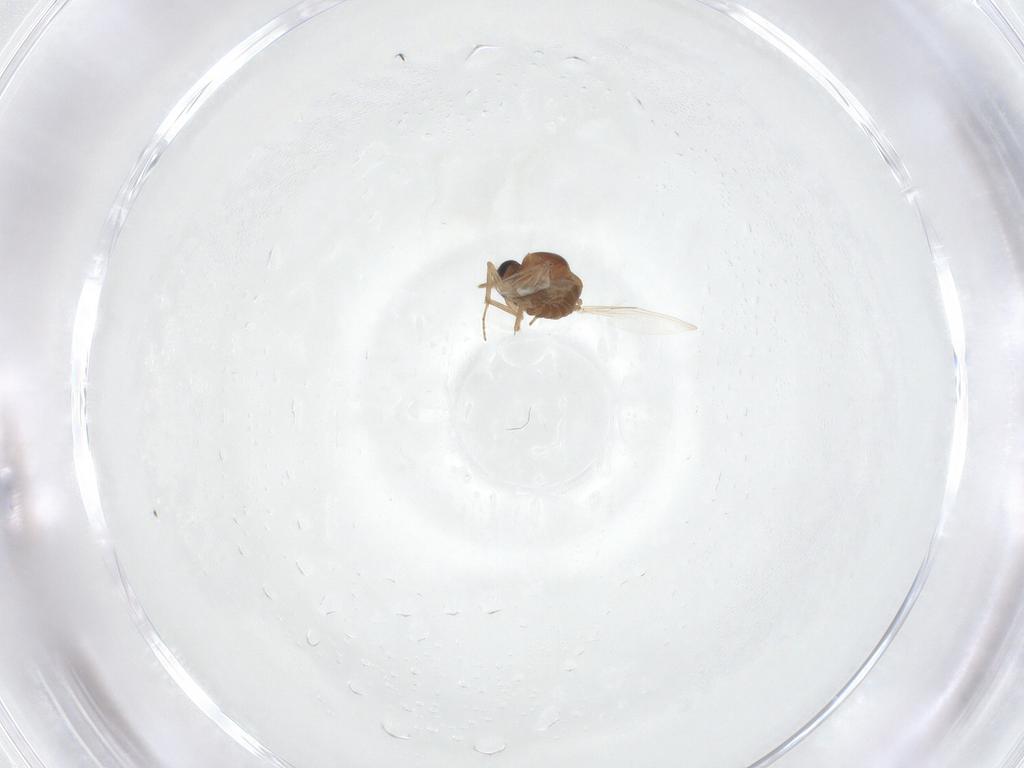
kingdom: Animalia
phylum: Arthropoda
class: Insecta
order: Diptera
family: Ceratopogonidae
